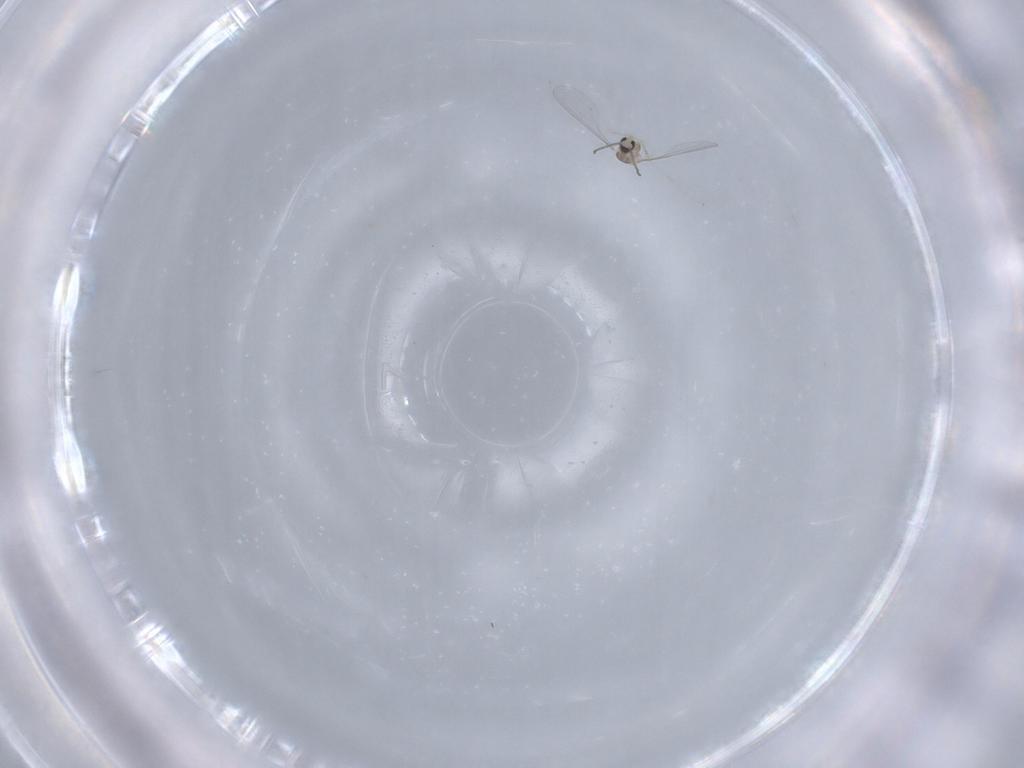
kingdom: Animalia
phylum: Arthropoda
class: Insecta
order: Diptera
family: Cecidomyiidae
